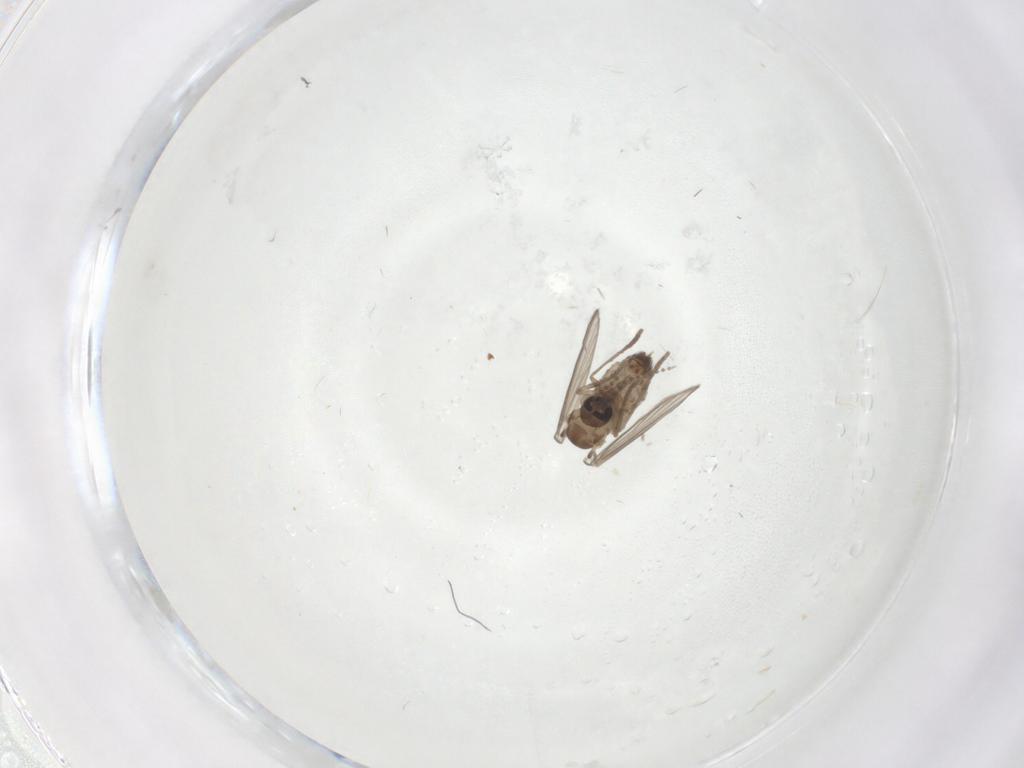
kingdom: Animalia
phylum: Arthropoda
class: Insecta
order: Diptera
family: Psychodidae
